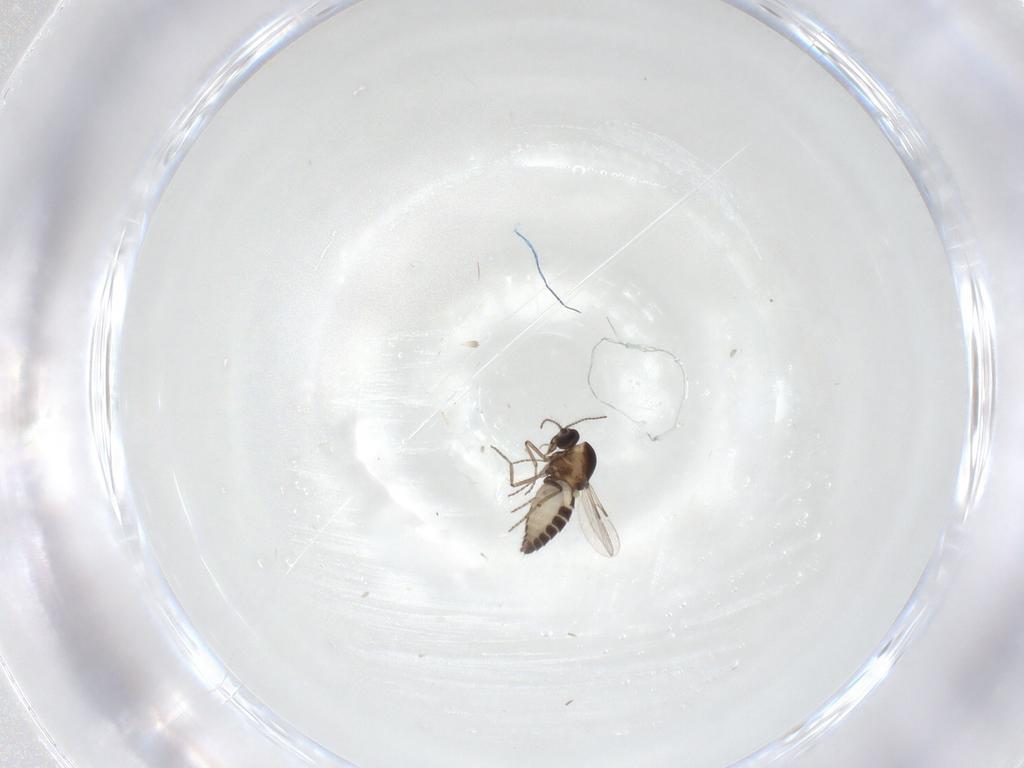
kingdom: Animalia
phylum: Arthropoda
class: Insecta
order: Diptera
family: Ceratopogonidae
